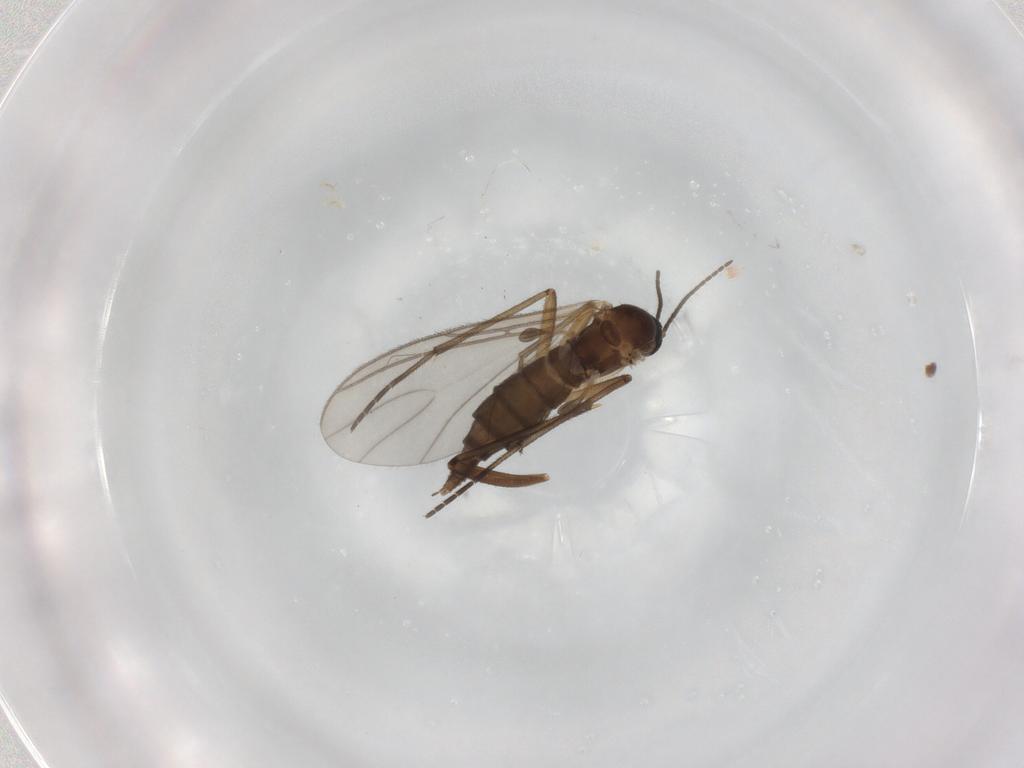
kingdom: Animalia
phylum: Arthropoda
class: Insecta
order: Diptera
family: Sciaridae
